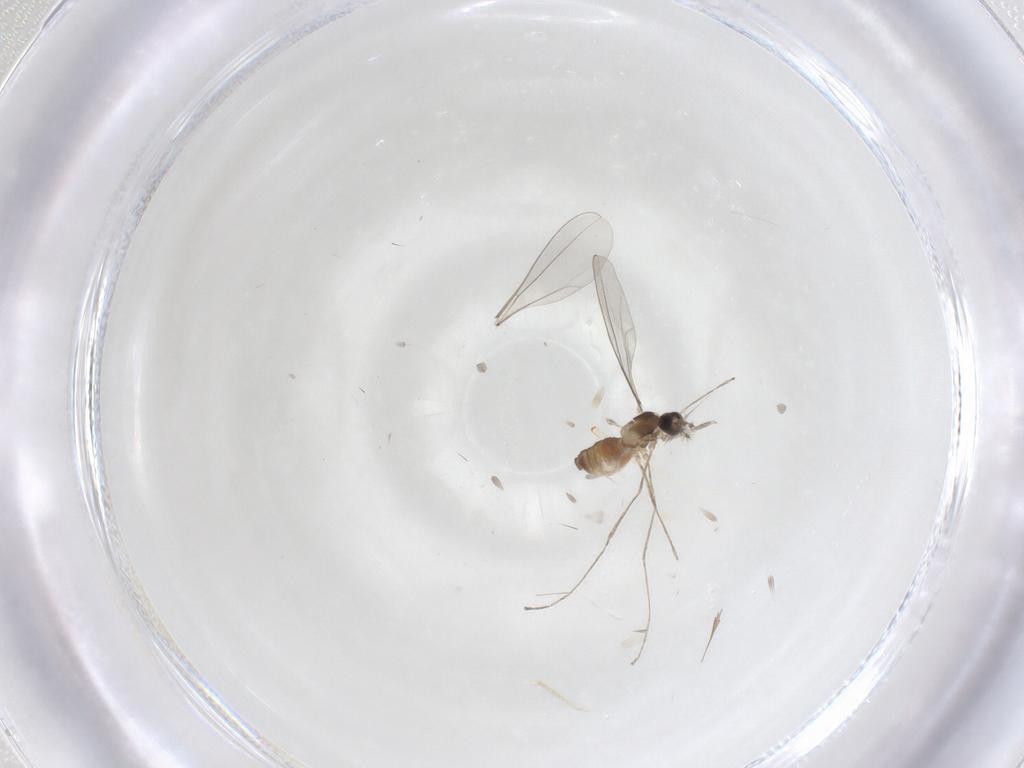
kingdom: Animalia
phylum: Arthropoda
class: Insecta
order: Diptera
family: Cecidomyiidae
